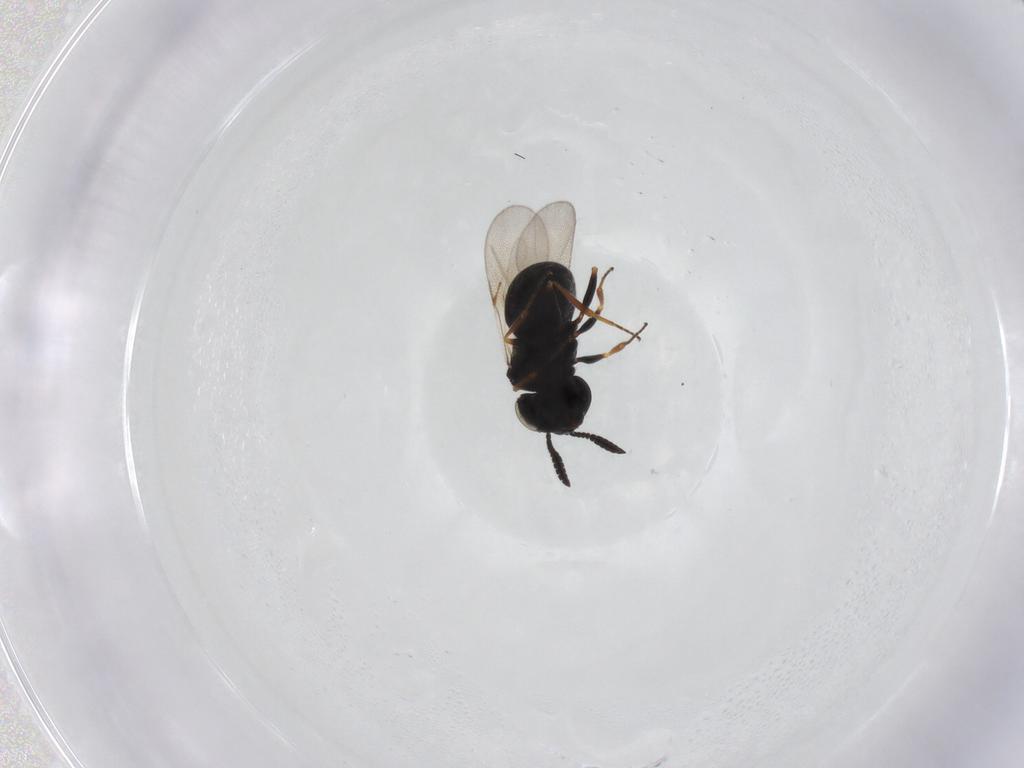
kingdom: Animalia
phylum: Arthropoda
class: Insecta
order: Hymenoptera
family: Scelionidae
